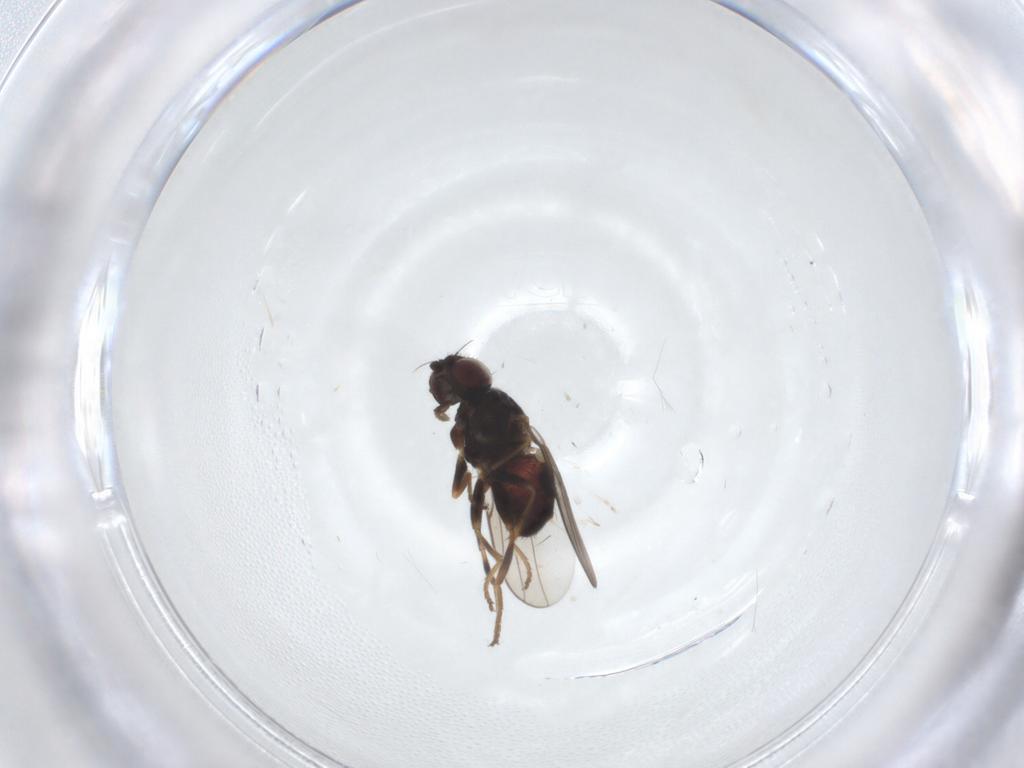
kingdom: Animalia
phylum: Arthropoda
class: Insecta
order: Diptera
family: Chloropidae
